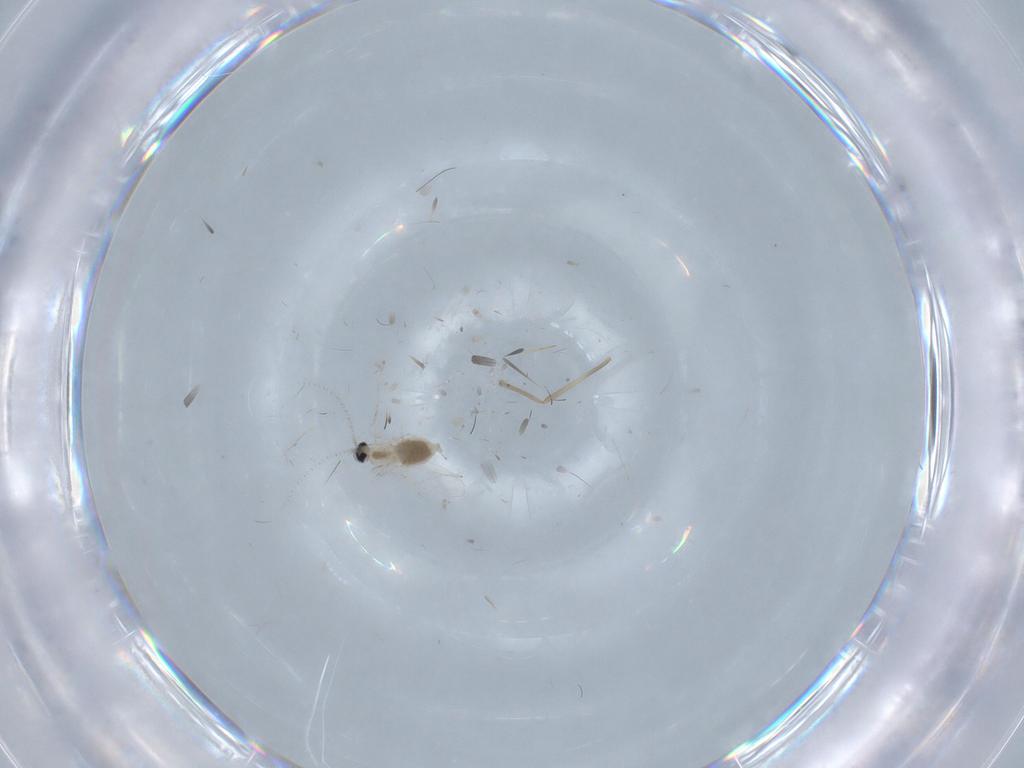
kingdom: Animalia
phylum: Arthropoda
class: Insecta
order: Diptera
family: Cecidomyiidae
